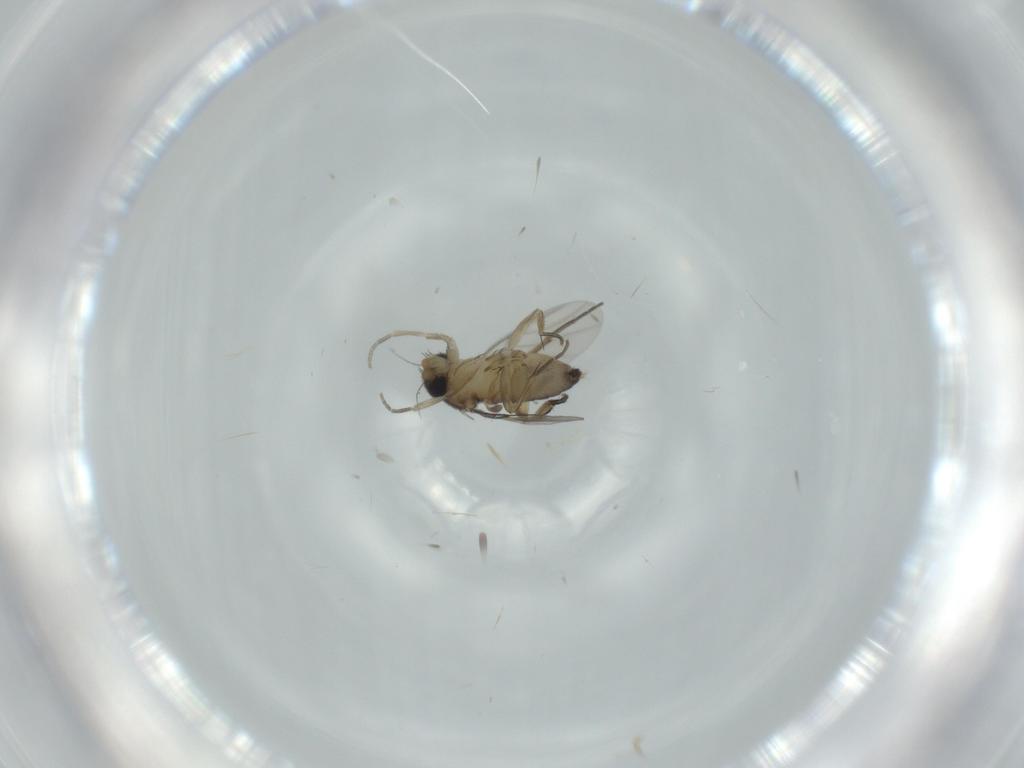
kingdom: Animalia
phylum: Arthropoda
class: Insecta
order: Diptera
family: Phoridae
